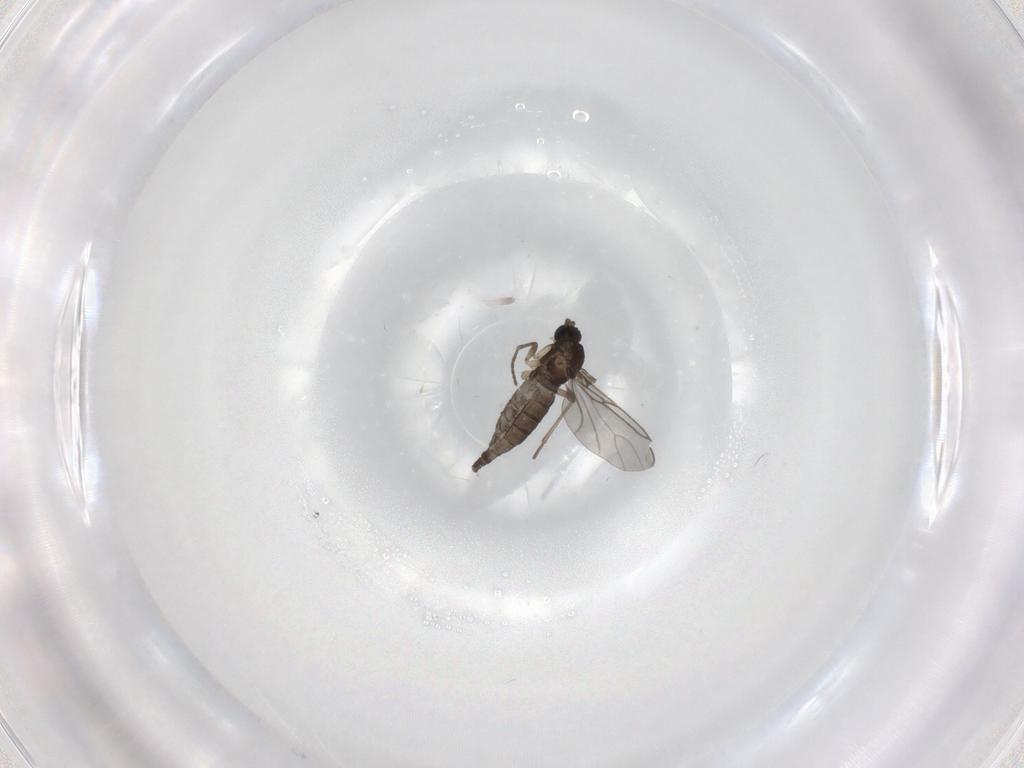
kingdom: Animalia
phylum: Arthropoda
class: Insecta
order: Diptera
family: Sciaridae
